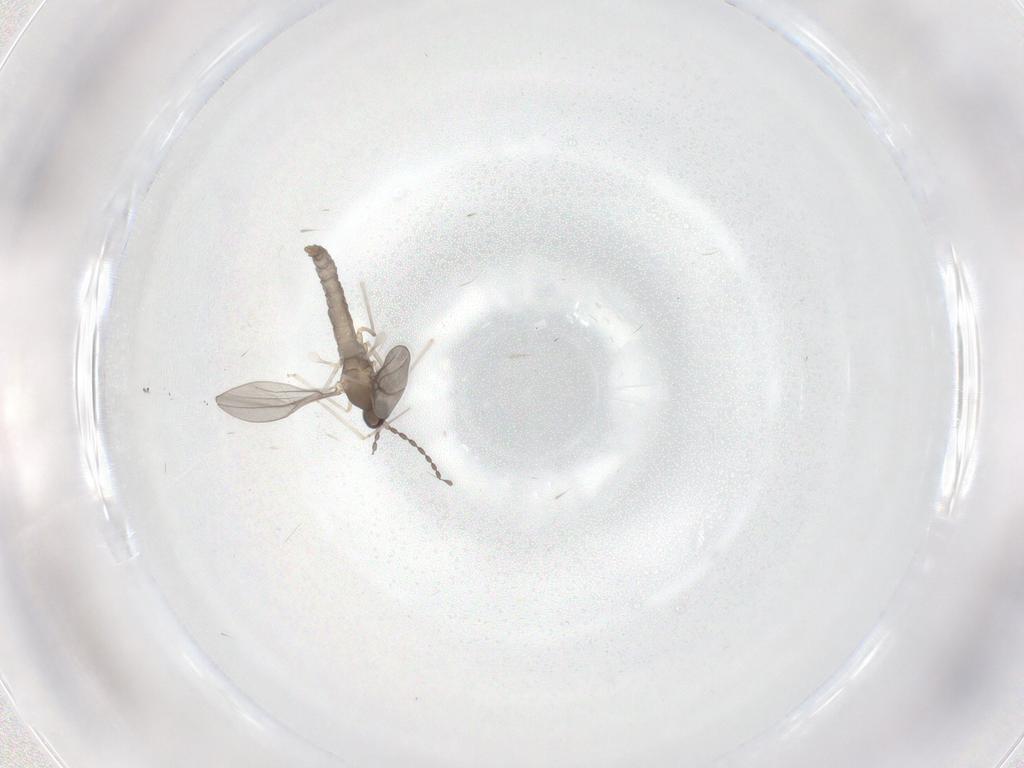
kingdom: Animalia
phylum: Arthropoda
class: Insecta
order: Diptera
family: Cecidomyiidae
